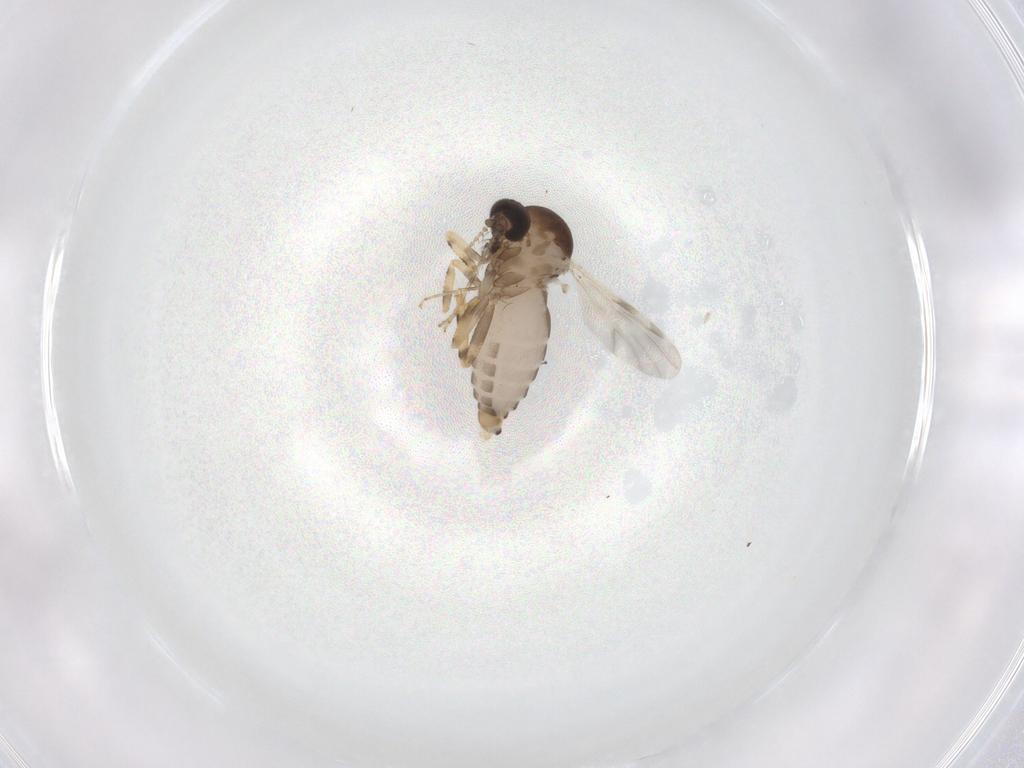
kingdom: Animalia
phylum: Arthropoda
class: Insecta
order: Diptera
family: Ceratopogonidae
